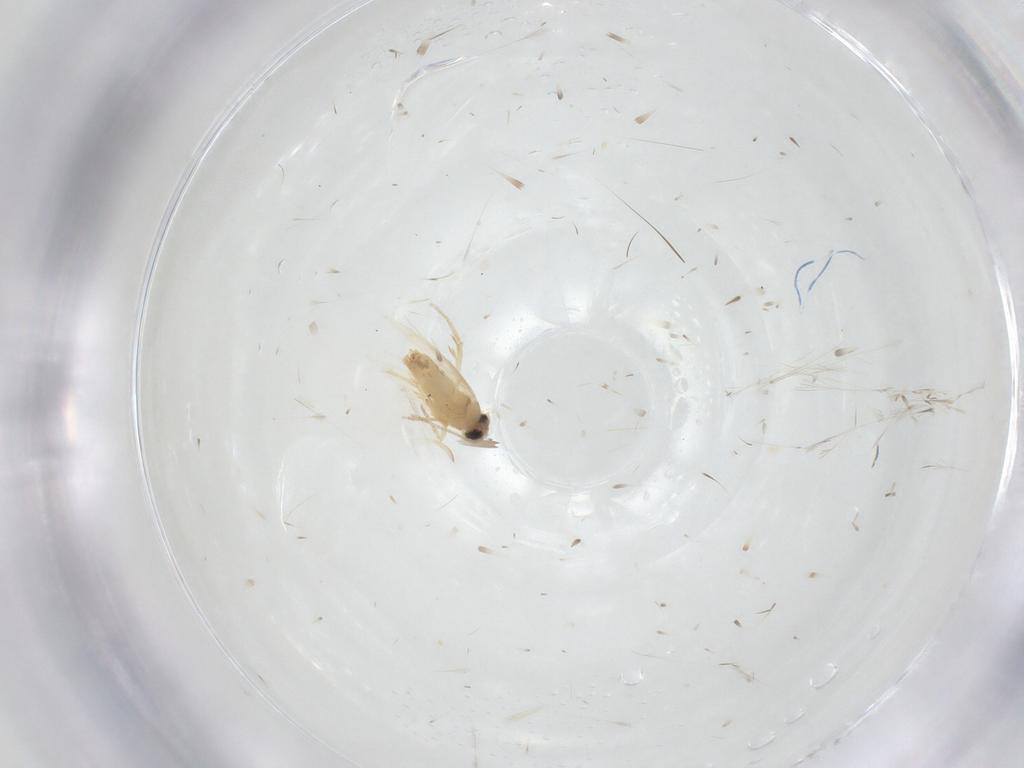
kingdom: Animalia
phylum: Arthropoda
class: Insecta
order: Lepidoptera
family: Crambidae
